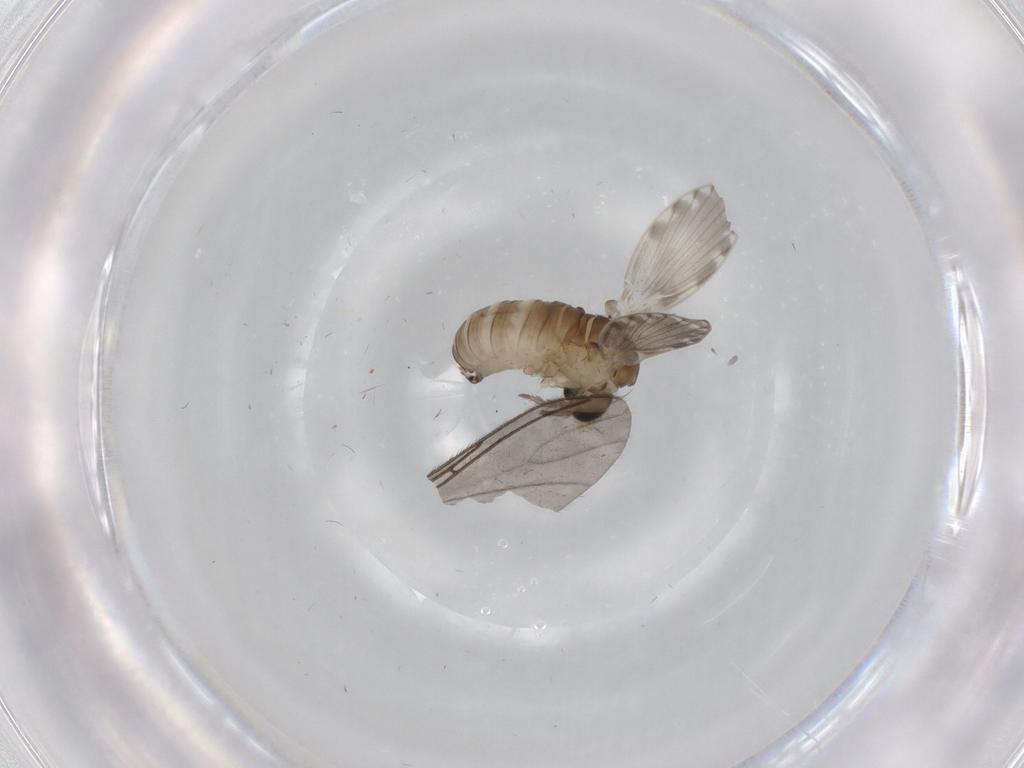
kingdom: Animalia
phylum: Arthropoda
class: Insecta
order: Diptera
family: Psychodidae
